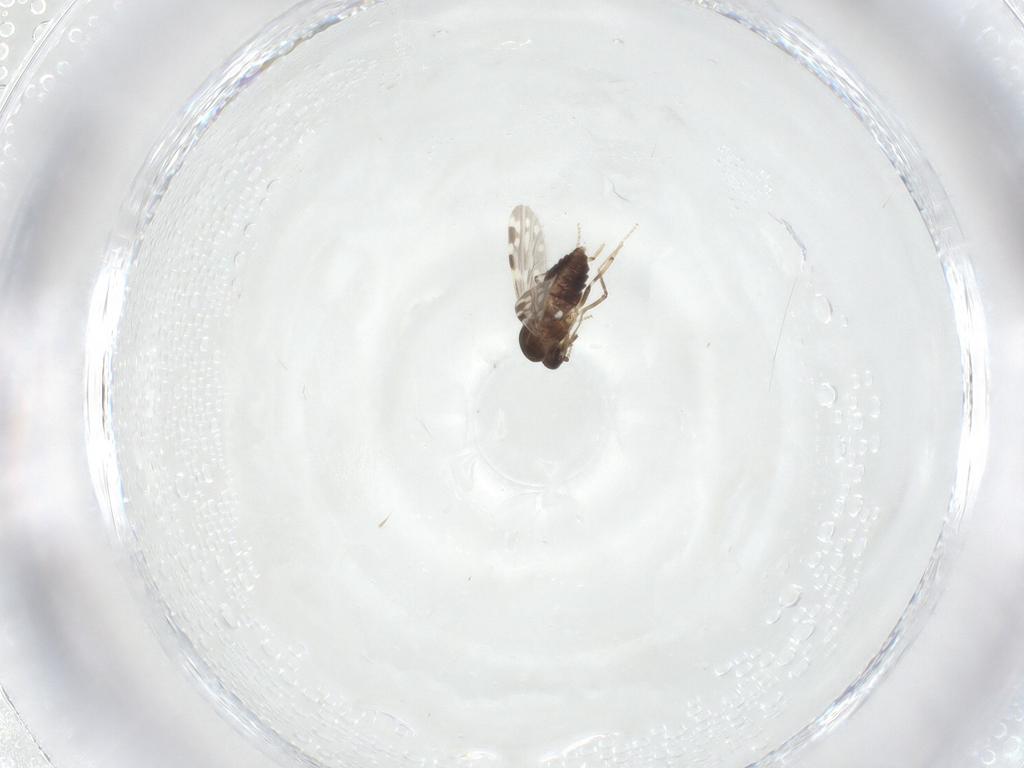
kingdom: Animalia
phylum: Arthropoda
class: Insecta
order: Diptera
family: Ceratopogonidae
